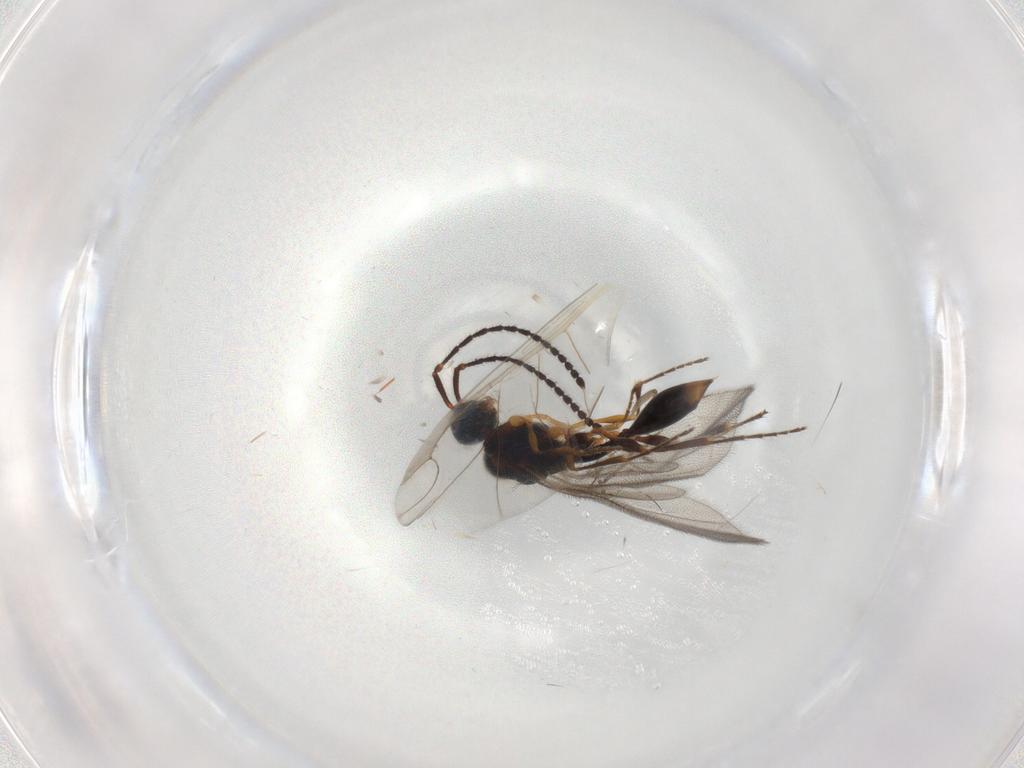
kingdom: Animalia
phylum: Arthropoda
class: Insecta
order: Hymenoptera
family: Diapriidae
